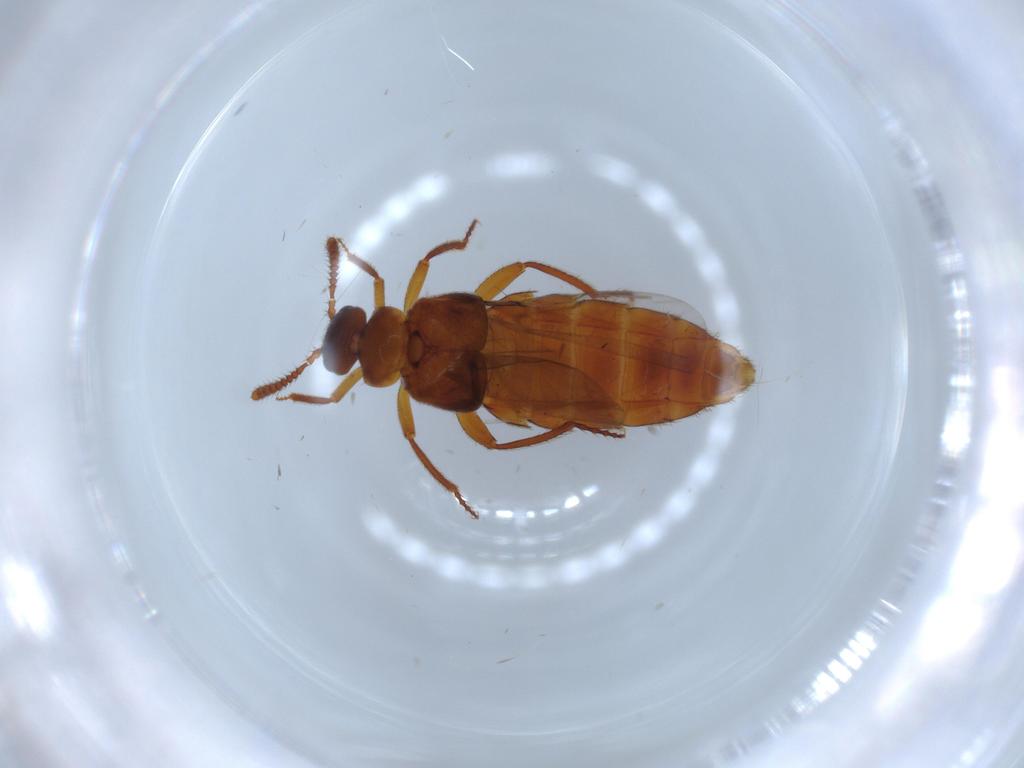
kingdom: Animalia
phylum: Arthropoda
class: Insecta
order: Coleoptera
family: Staphylinidae
